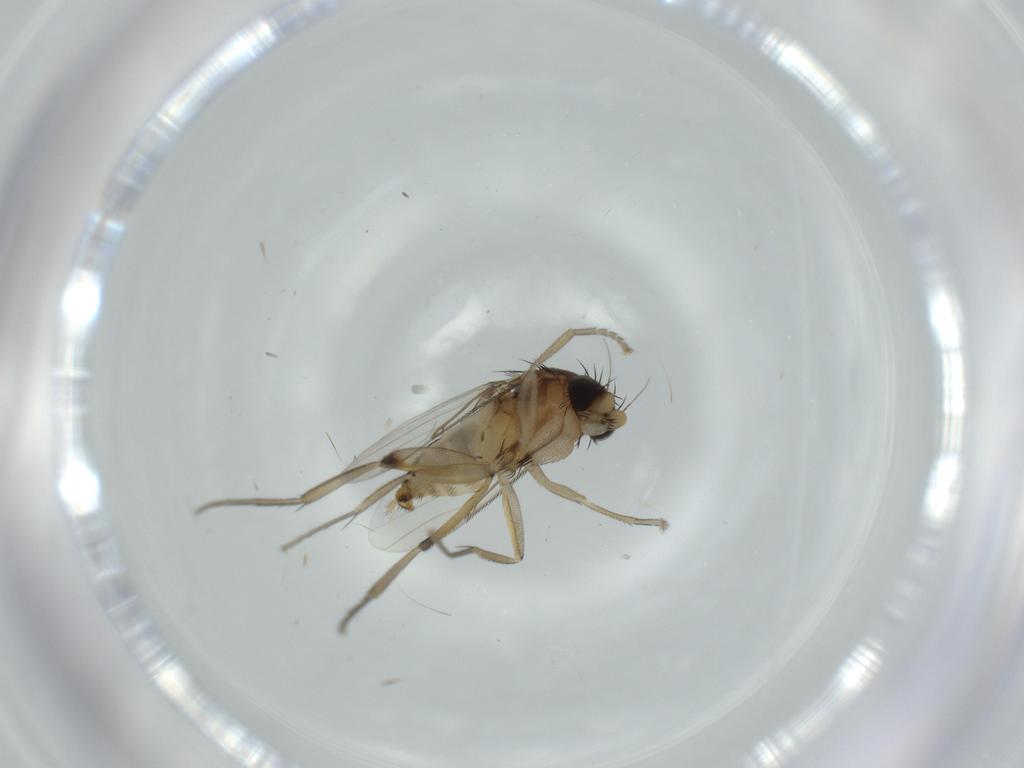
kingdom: Animalia
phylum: Arthropoda
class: Insecta
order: Diptera
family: Phoridae
